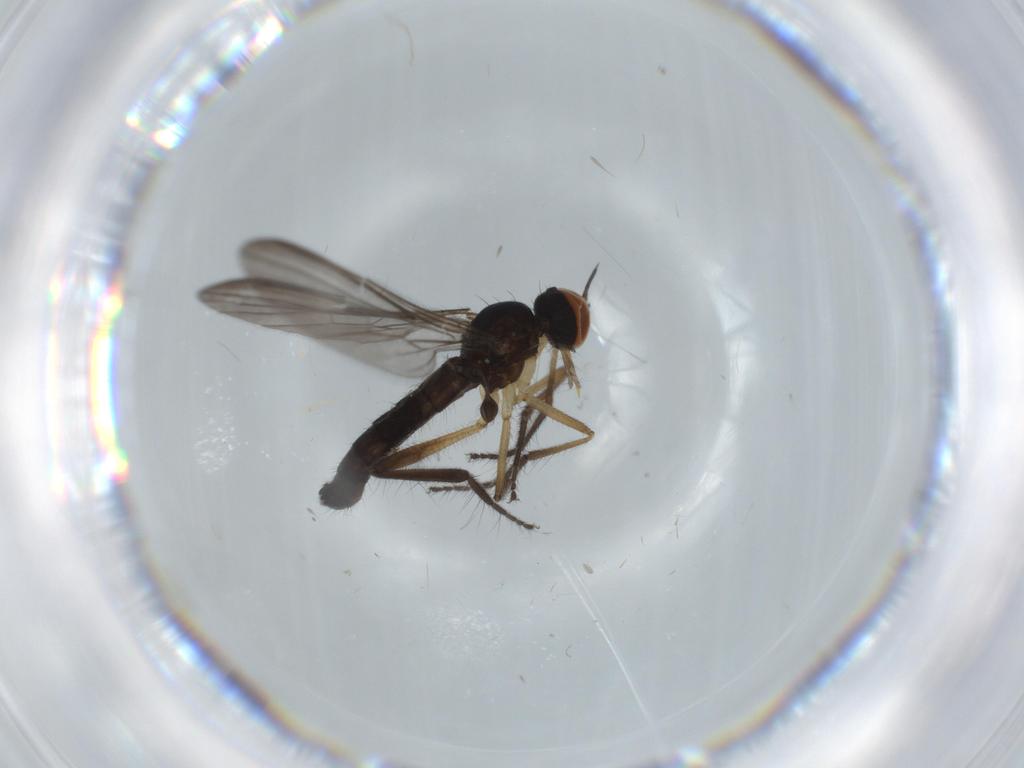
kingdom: Animalia
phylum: Arthropoda
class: Insecta
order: Diptera
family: Empididae
